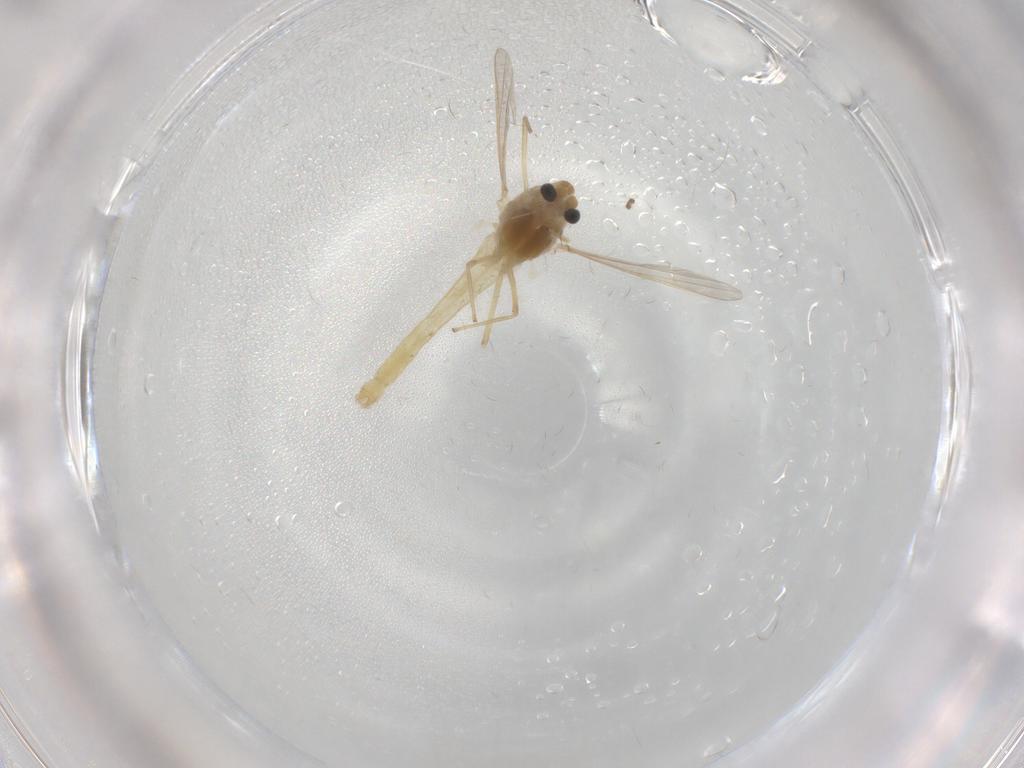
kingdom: Animalia
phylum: Arthropoda
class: Insecta
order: Diptera
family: Chironomidae
